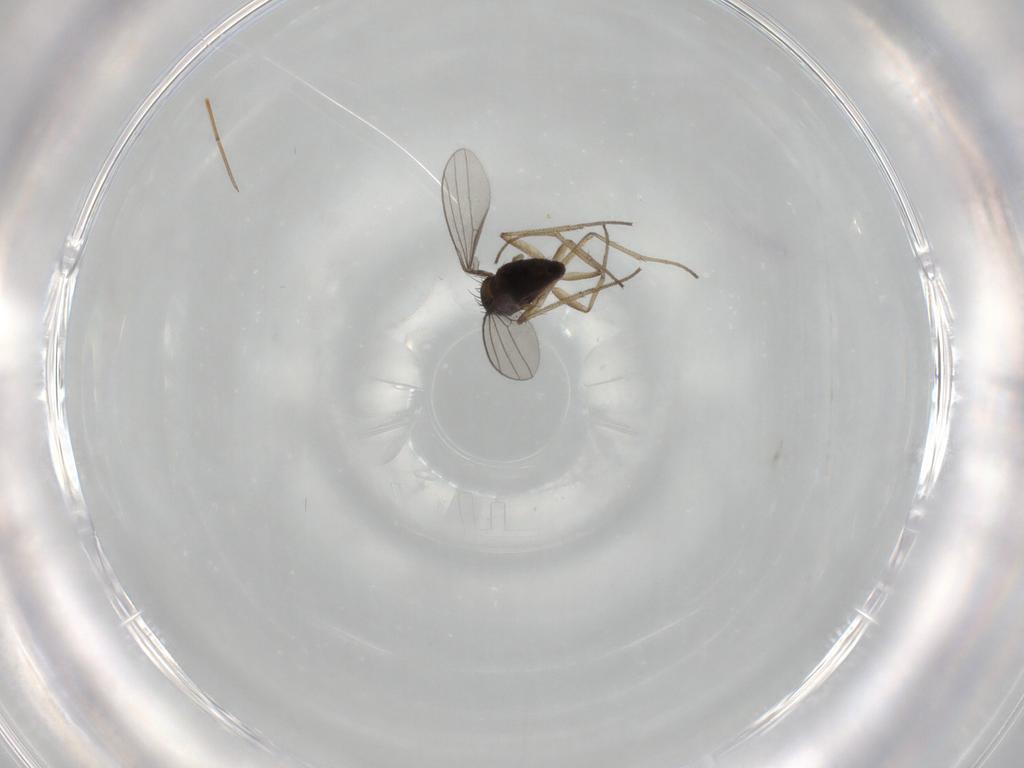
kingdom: Animalia
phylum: Arthropoda
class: Insecta
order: Diptera
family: Dolichopodidae
